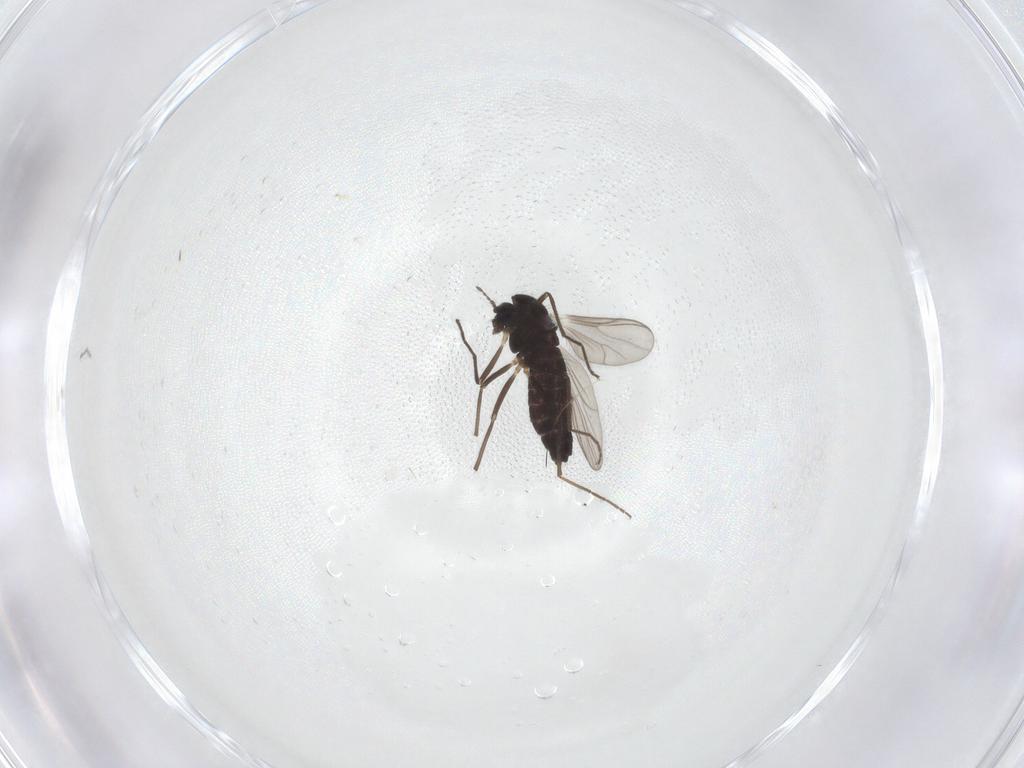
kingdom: Animalia
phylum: Arthropoda
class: Insecta
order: Diptera
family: Chironomidae
